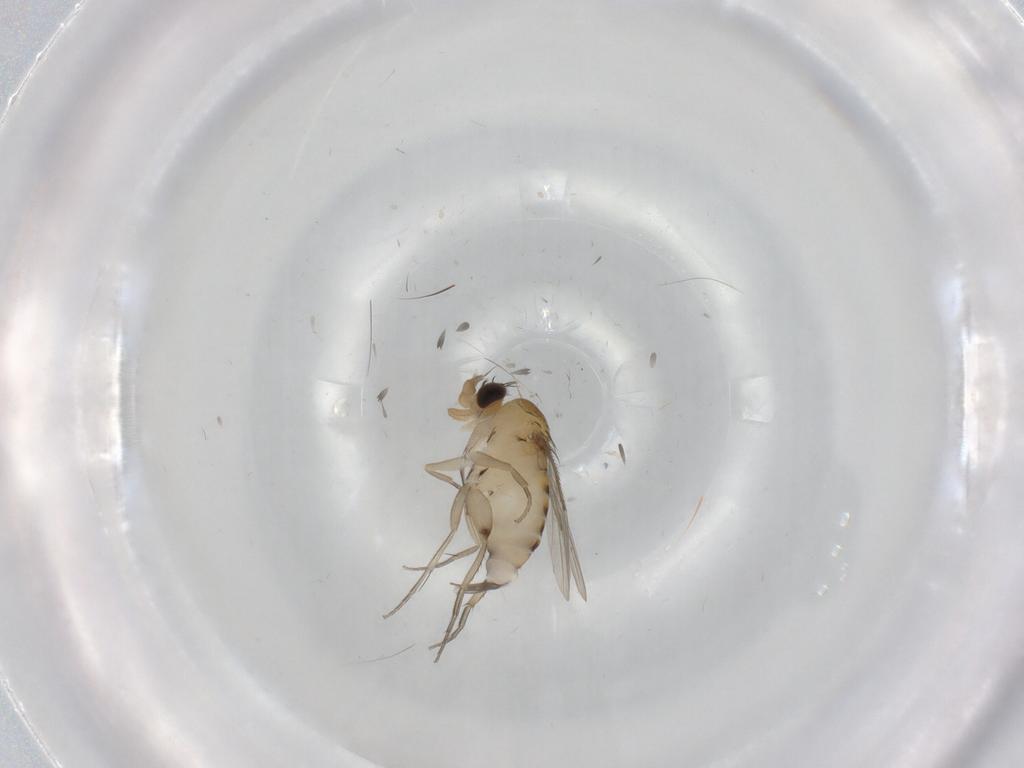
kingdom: Animalia
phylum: Arthropoda
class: Insecta
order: Diptera
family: Phoridae
